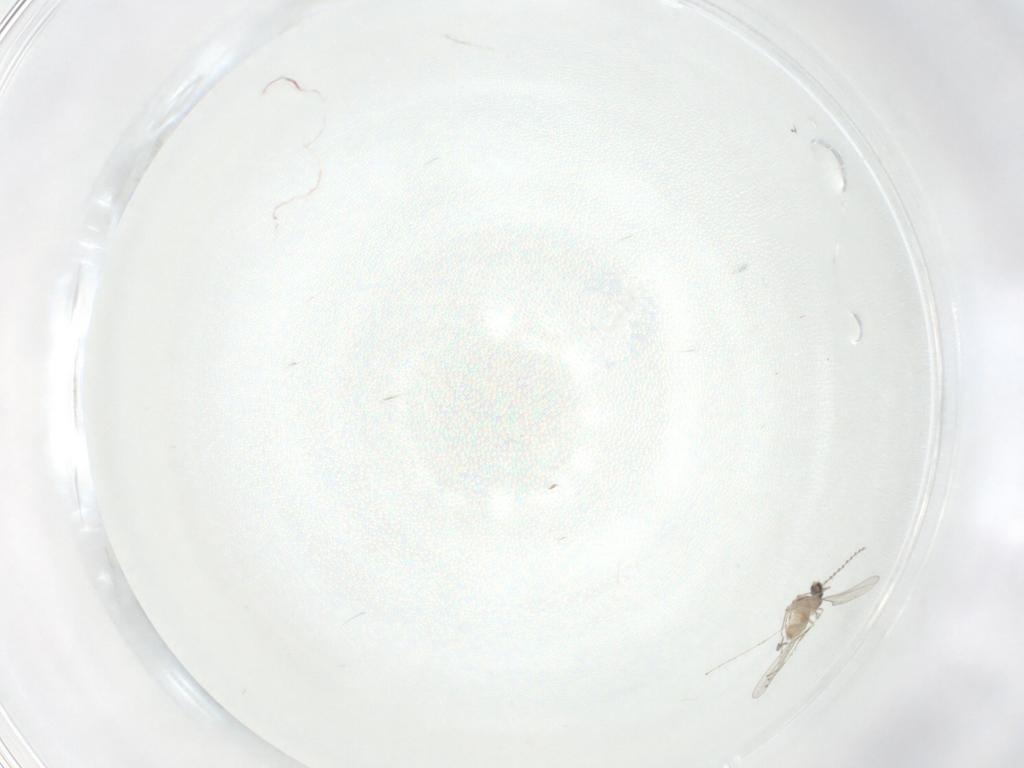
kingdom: Animalia
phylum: Arthropoda
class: Insecta
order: Diptera
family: Cecidomyiidae
